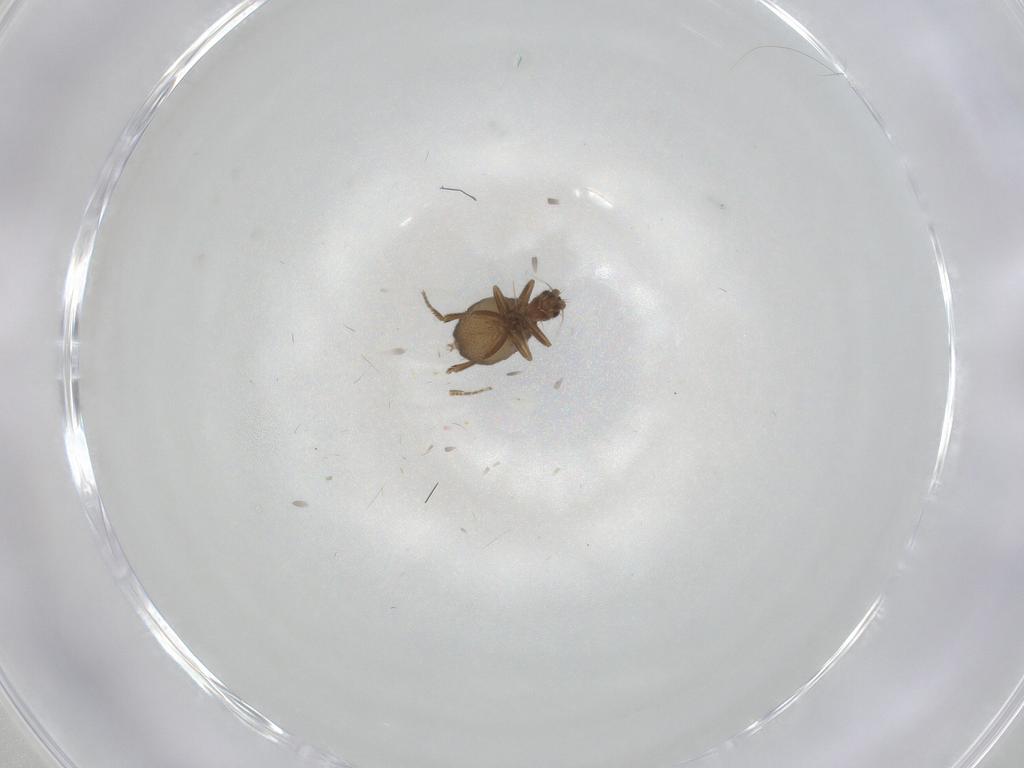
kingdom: Animalia
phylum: Arthropoda
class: Insecta
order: Diptera
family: Phoridae
